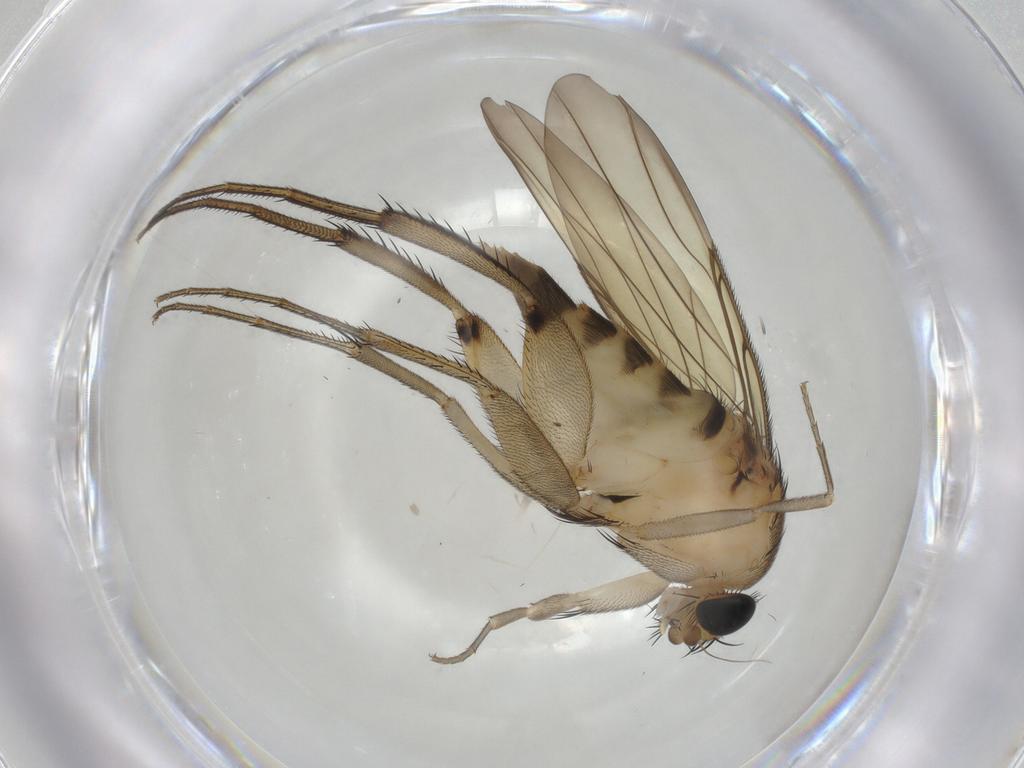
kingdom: Animalia
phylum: Arthropoda
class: Insecta
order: Diptera
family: Phoridae
